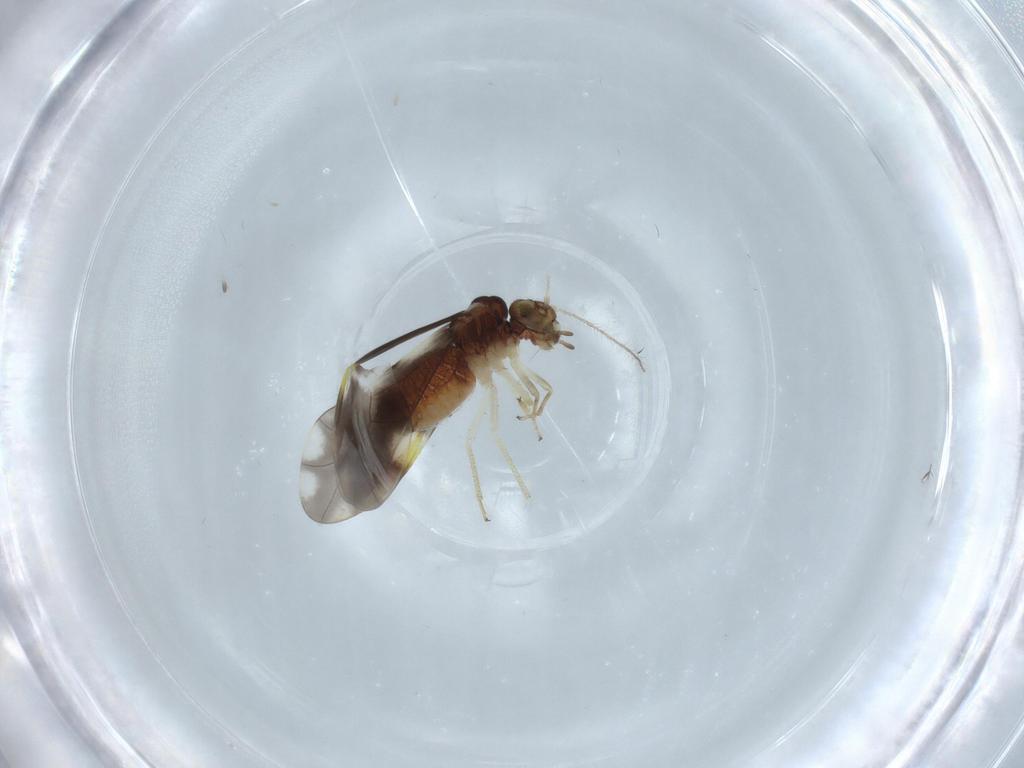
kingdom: Animalia
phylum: Arthropoda
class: Insecta
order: Psocodea
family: Peripsocidae
